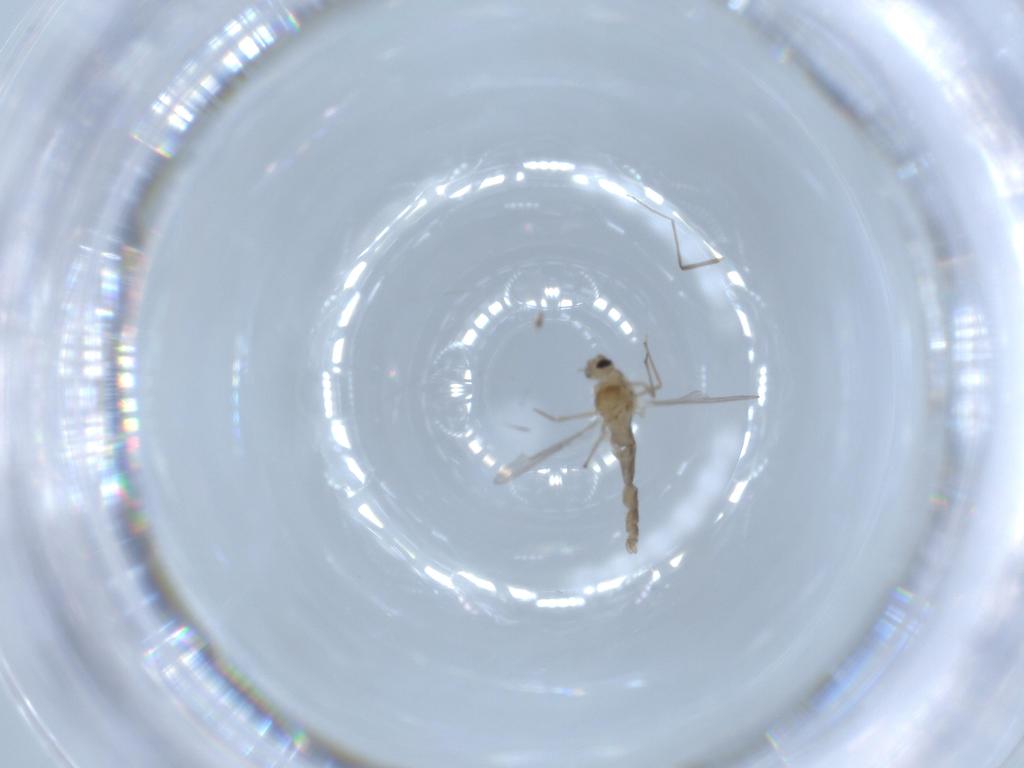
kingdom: Animalia
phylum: Arthropoda
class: Insecta
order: Diptera
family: Chironomidae
